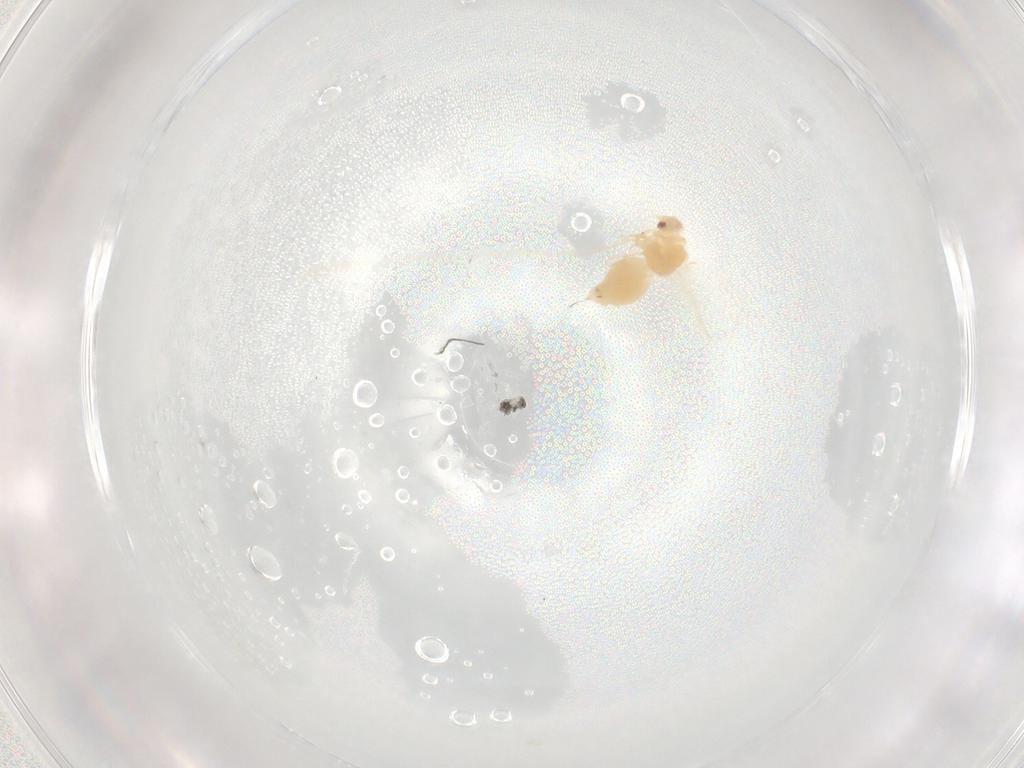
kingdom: Animalia
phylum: Arthropoda
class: Insecta
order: Hemiptera
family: Aleyrodidae
